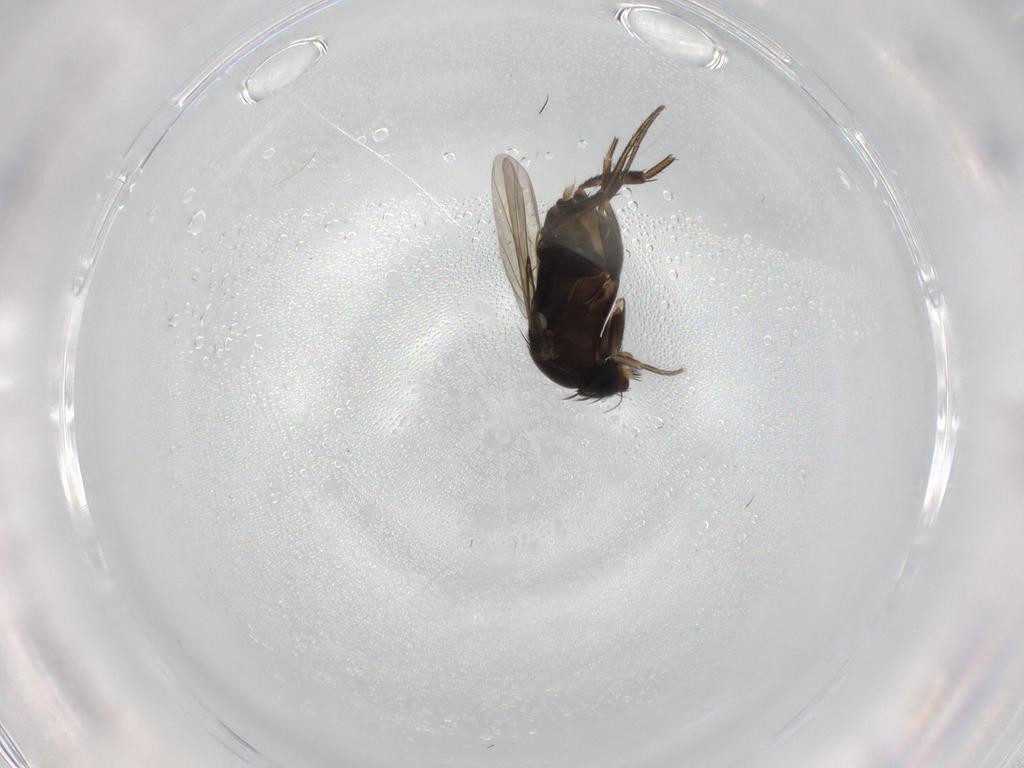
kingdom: Animalia
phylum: Arthropoda
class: Insecta
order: Diptera
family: Phoridae
